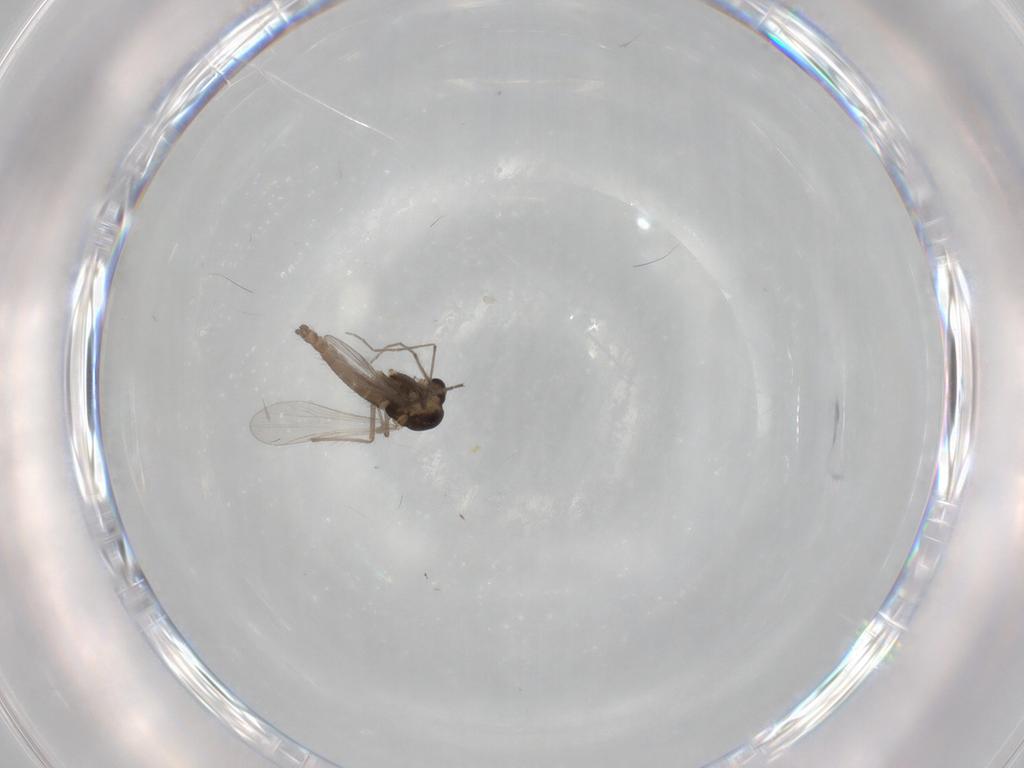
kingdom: Animalia
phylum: Arthropoda
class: Insecta
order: Diptera
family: Chironomidae
